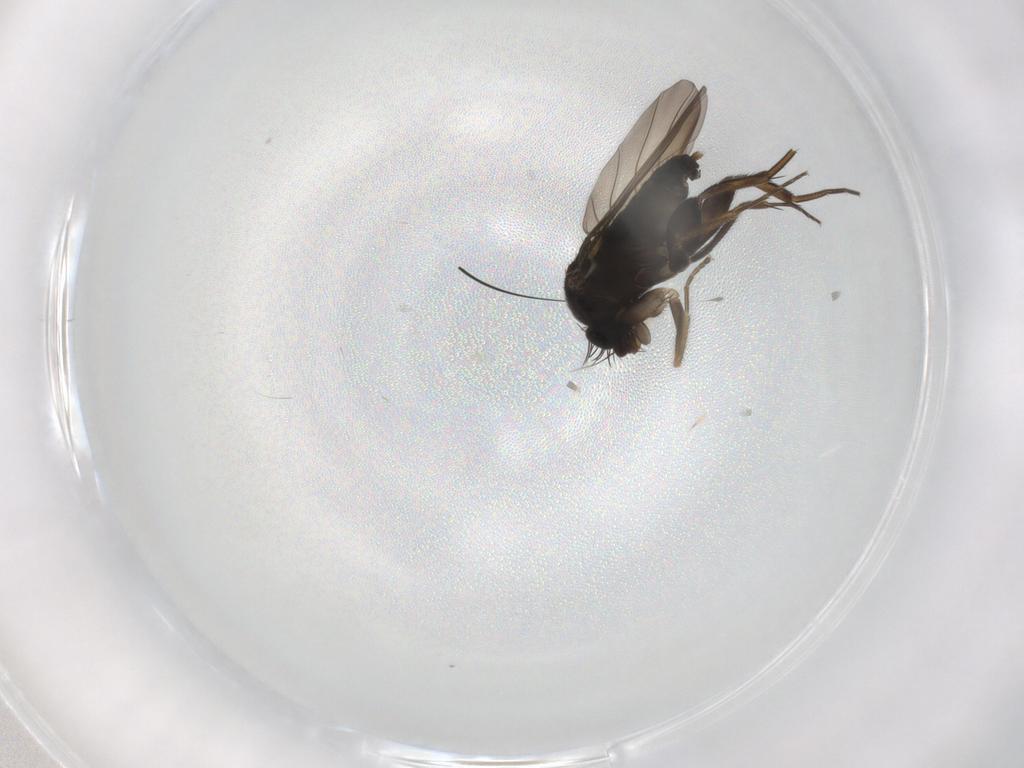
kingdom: Animalia
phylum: Arthropoda
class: Insecta
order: Diptera
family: Phoridae
